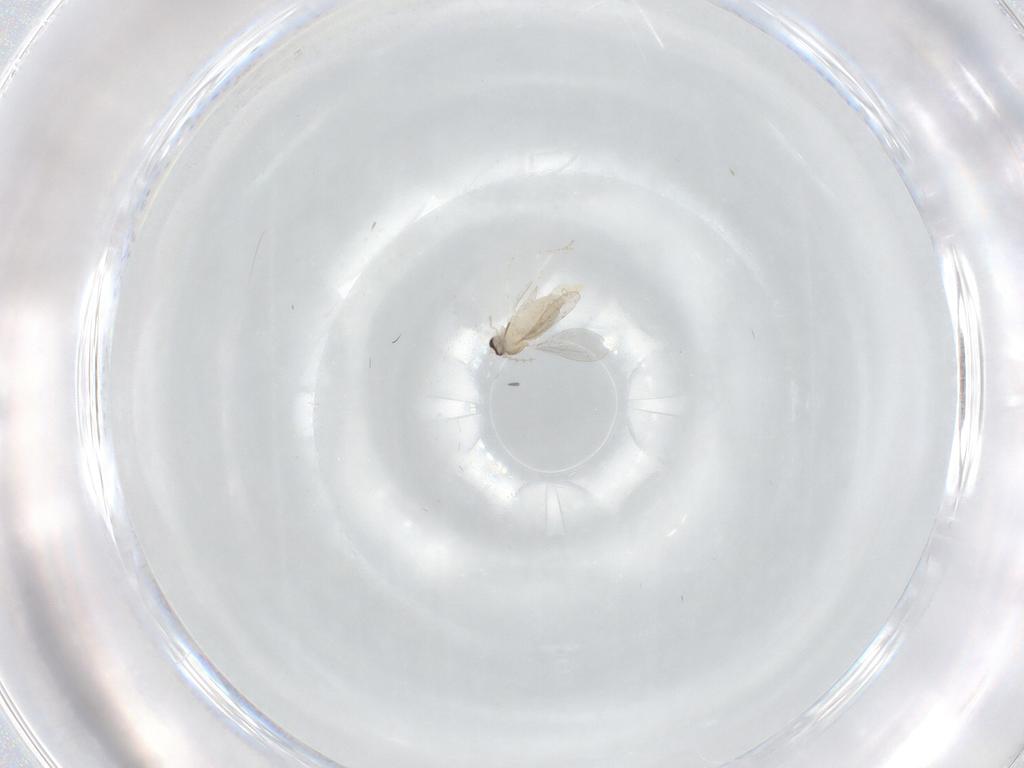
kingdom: Animalia
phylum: Arthropoda
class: Insecta
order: Diptera
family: Cecidomyiidae
